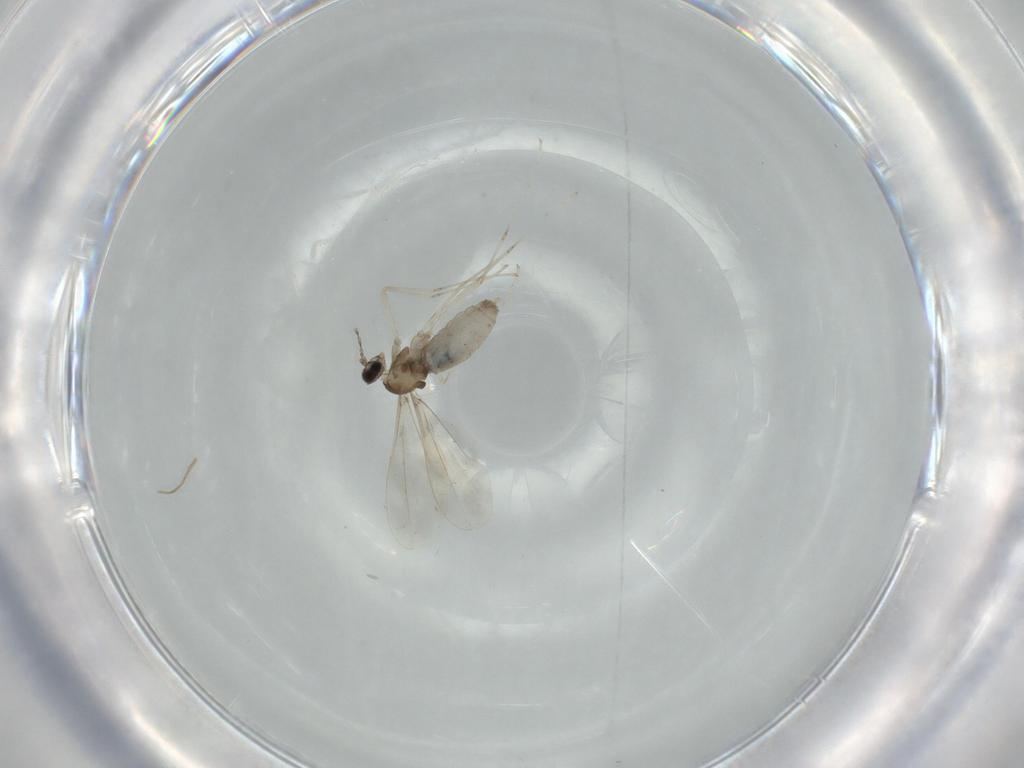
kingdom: Animalia
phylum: Arthropoda
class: Insecta
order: Diptera
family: Cecidomyiidae
